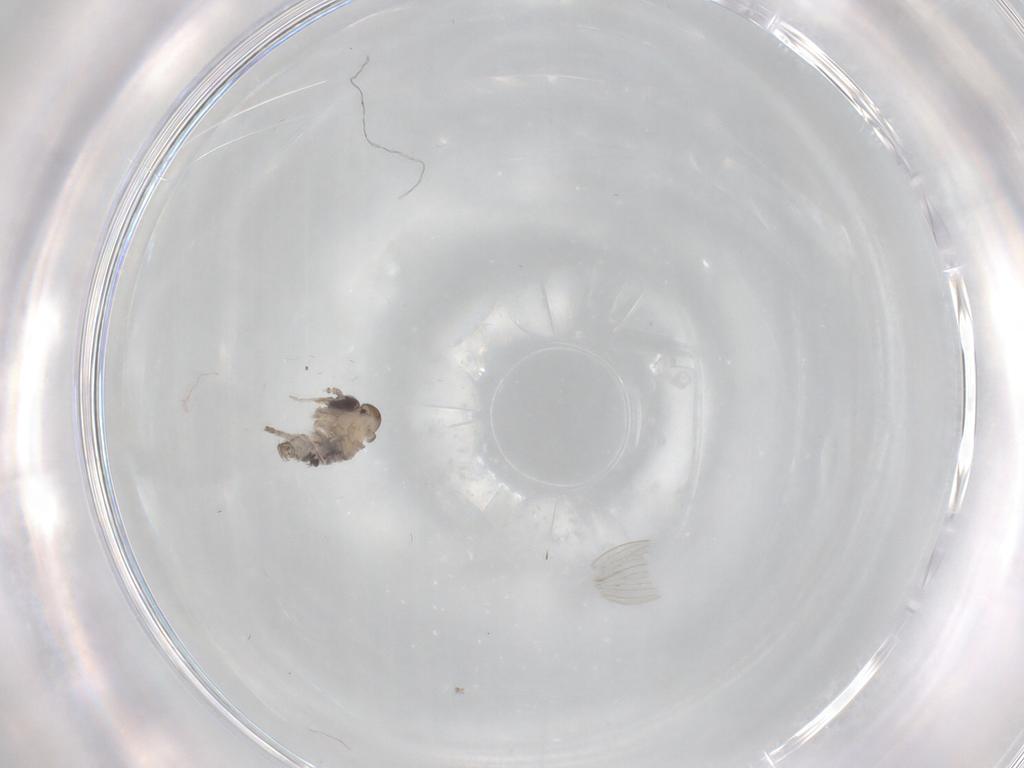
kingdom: Animalia
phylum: Arthropoda
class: Insecta
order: Diptera
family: Psychodidae
